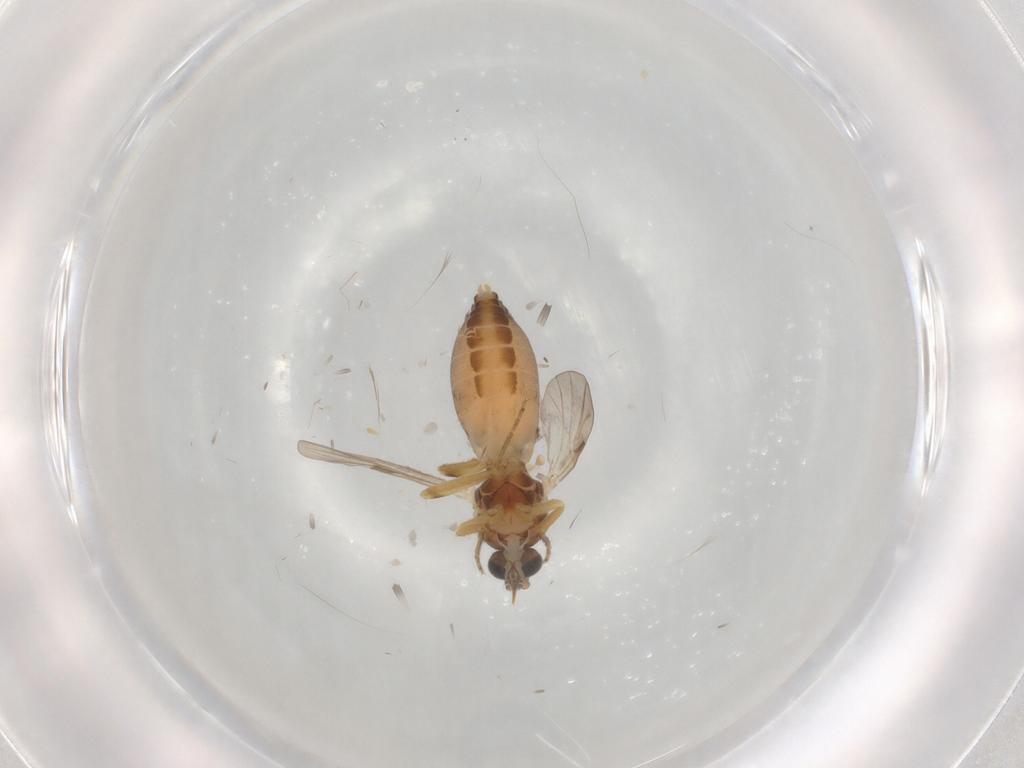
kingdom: Animalia
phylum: Arthropoda
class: Insecta
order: Diptera
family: Ceratopogonidae
